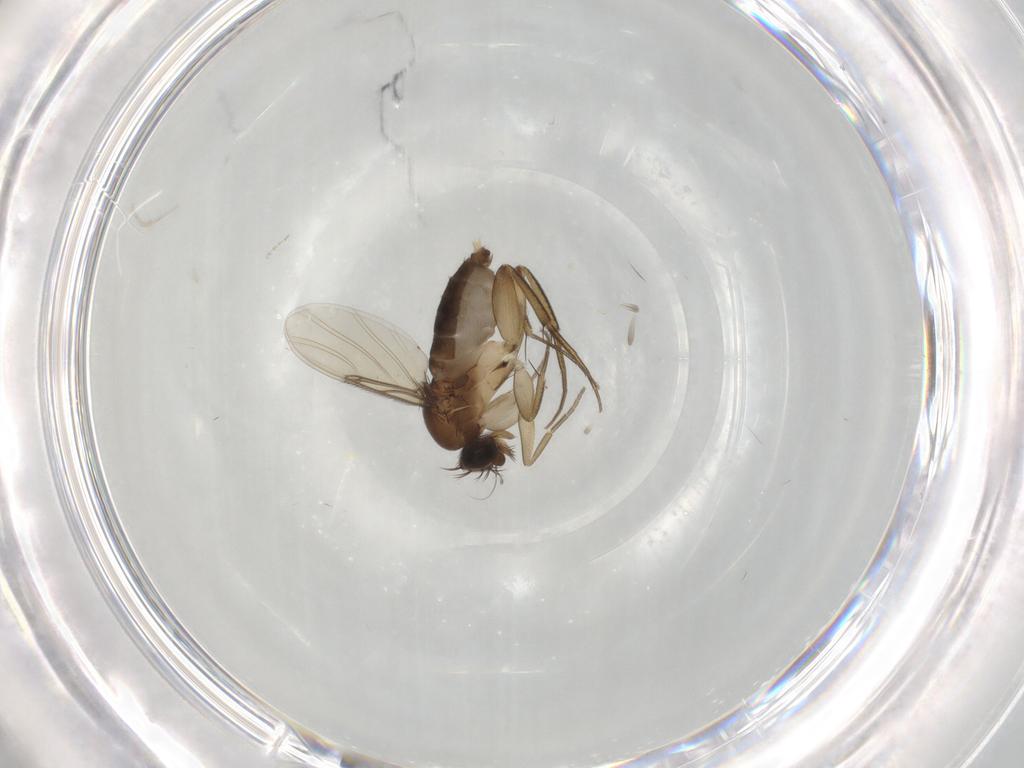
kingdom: Animalia
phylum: Arthropoda
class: Insecta
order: Diptera
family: Phoridae
